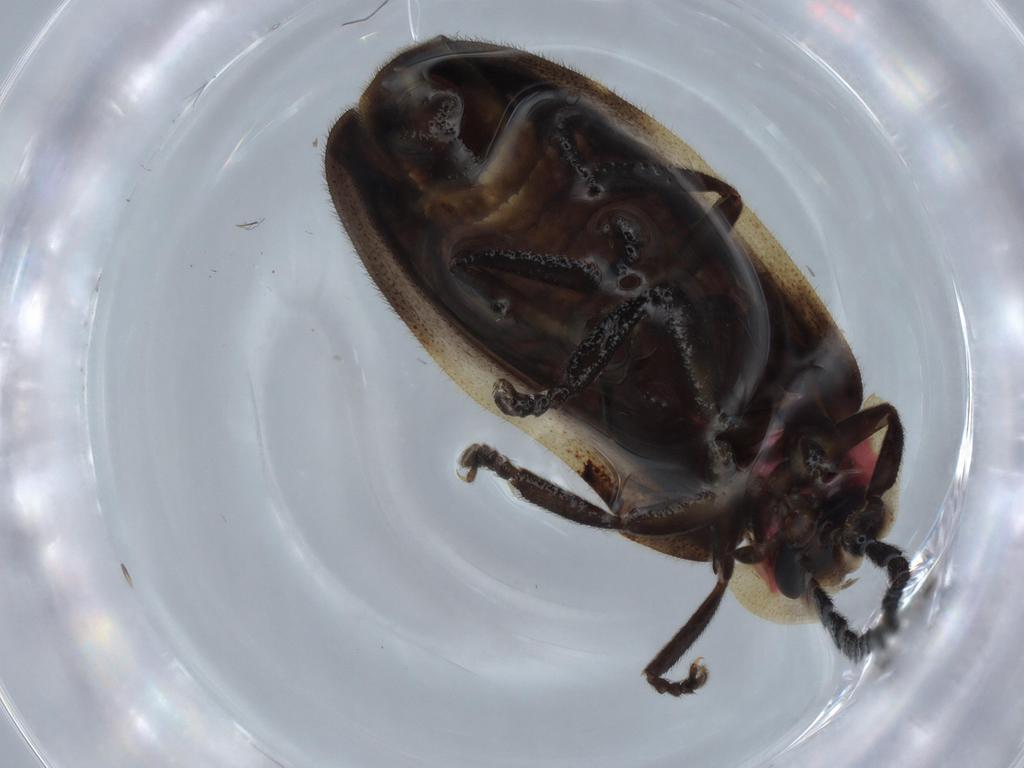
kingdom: Animalia
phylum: Arthropoda
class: Insecta
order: Coleoptera
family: Lampyridae
